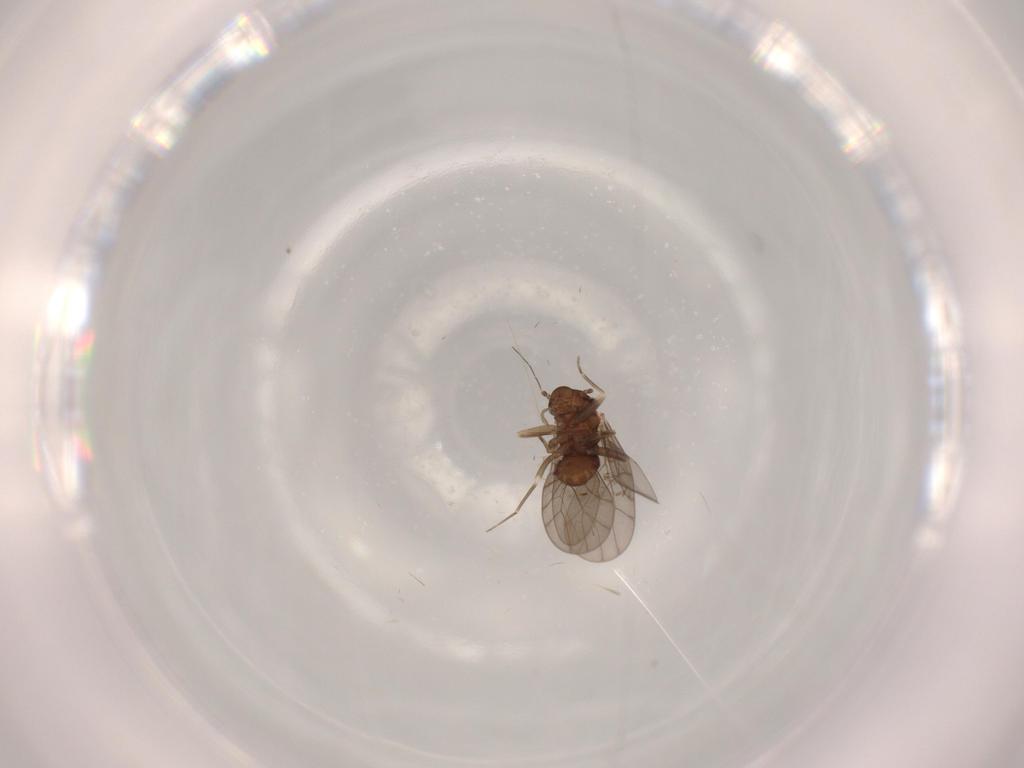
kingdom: Animalia
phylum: Arthropoda
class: Insecta
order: Psocodea
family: Lepidopsocidae
